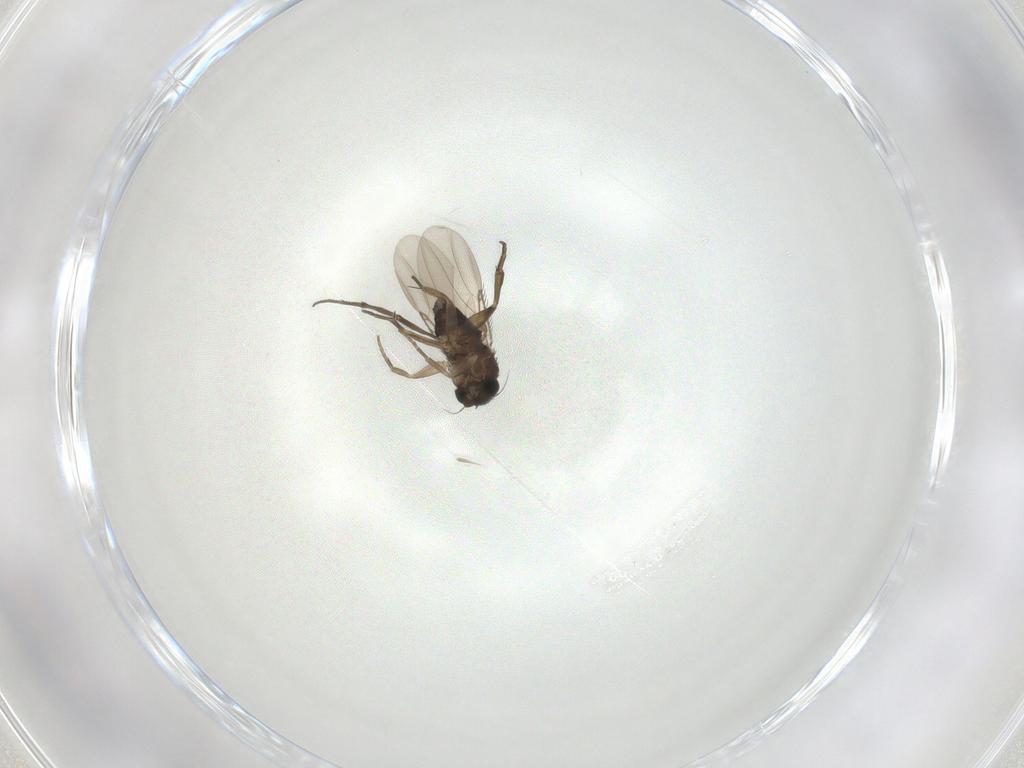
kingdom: Animalia
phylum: Arthropoda
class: Insecta
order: Diptera
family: Phoridae
